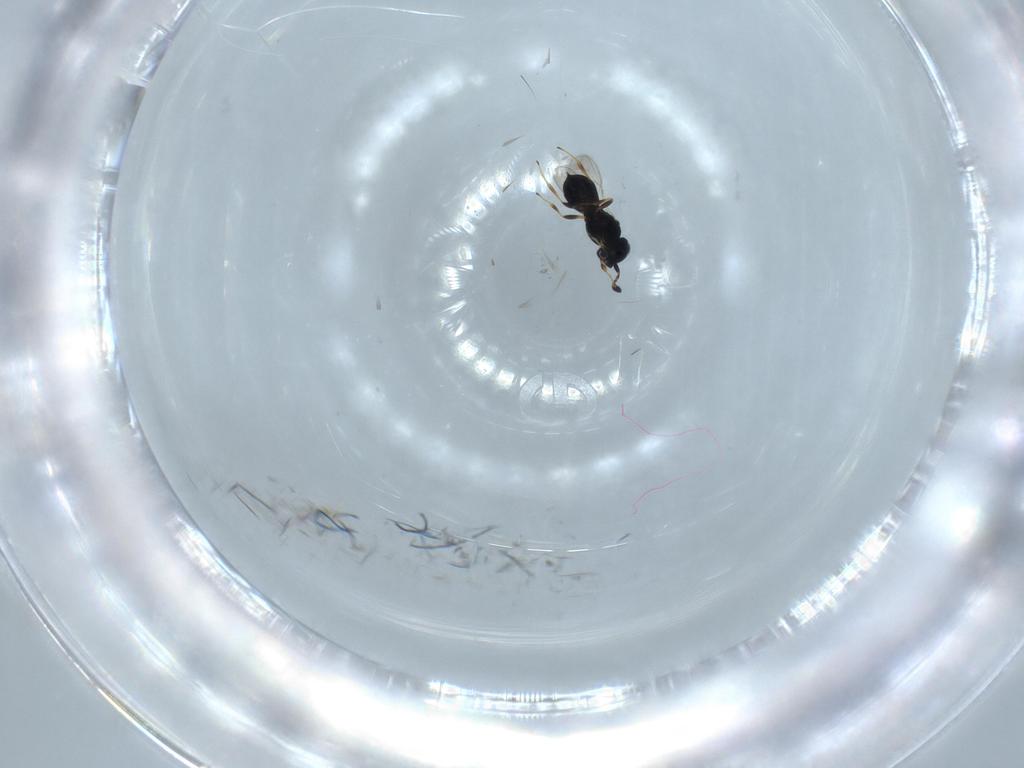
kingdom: Animalia
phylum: Arthropoda
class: Insecta
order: Hymenoptera
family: Scelionidae
